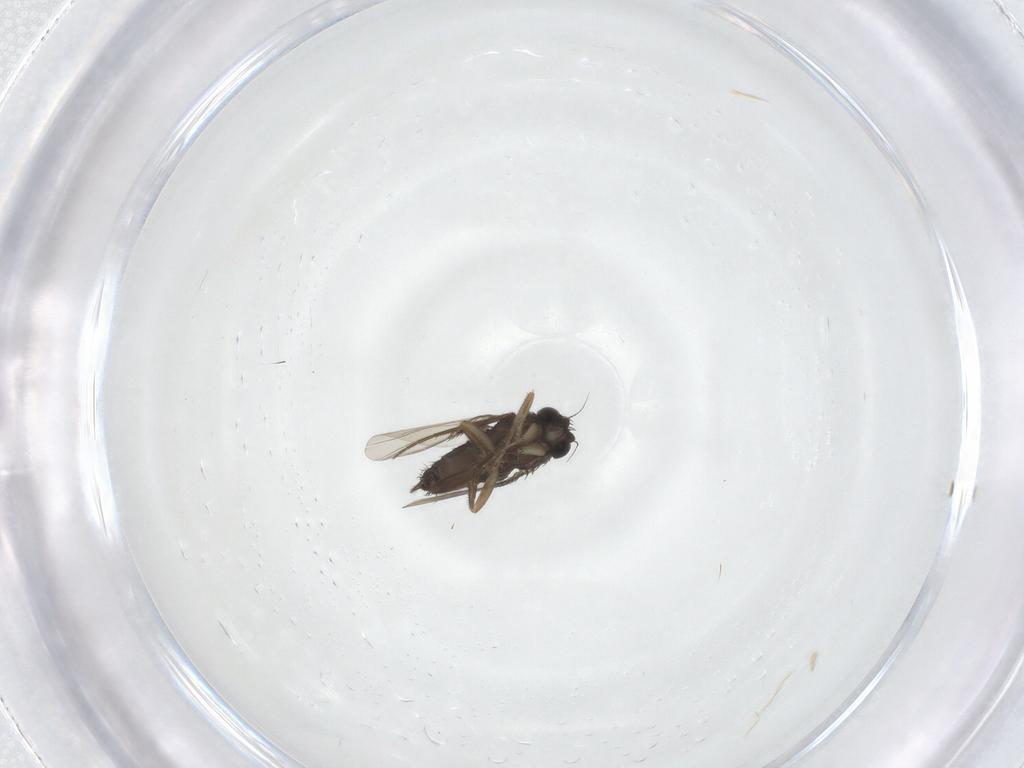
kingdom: Animalia
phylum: Arthropoda
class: Insecta
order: Diptera
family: Phoridae
